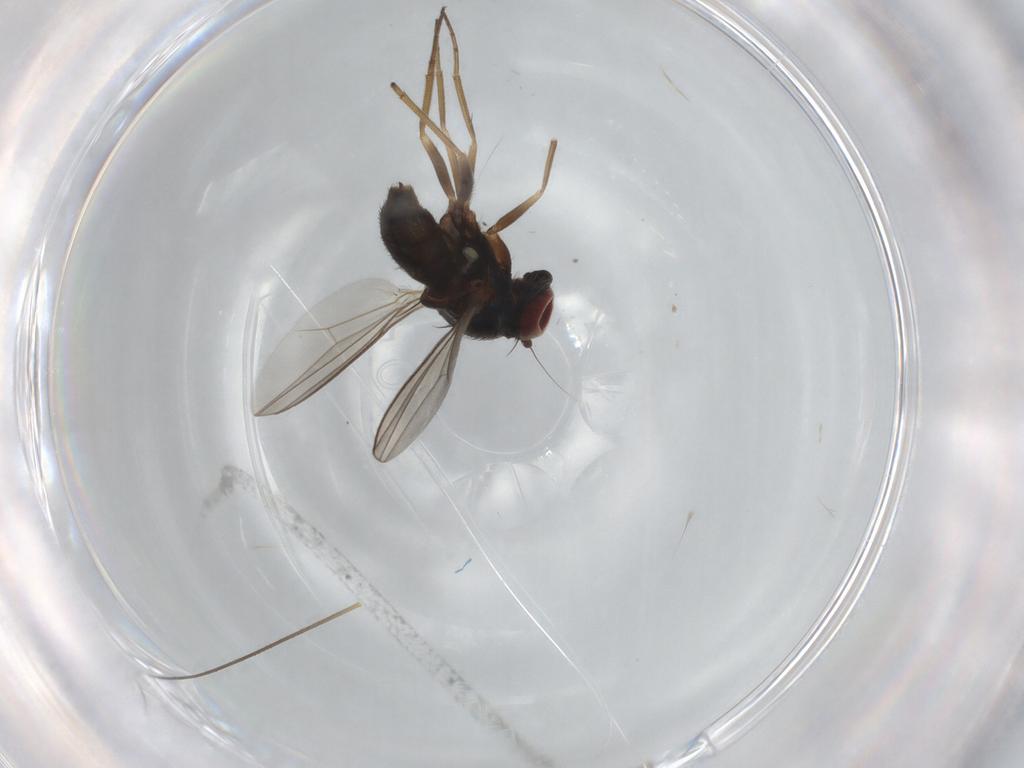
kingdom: Animalia
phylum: Arthropoda
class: Insecta
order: Diptera
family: Dolichopodidae
